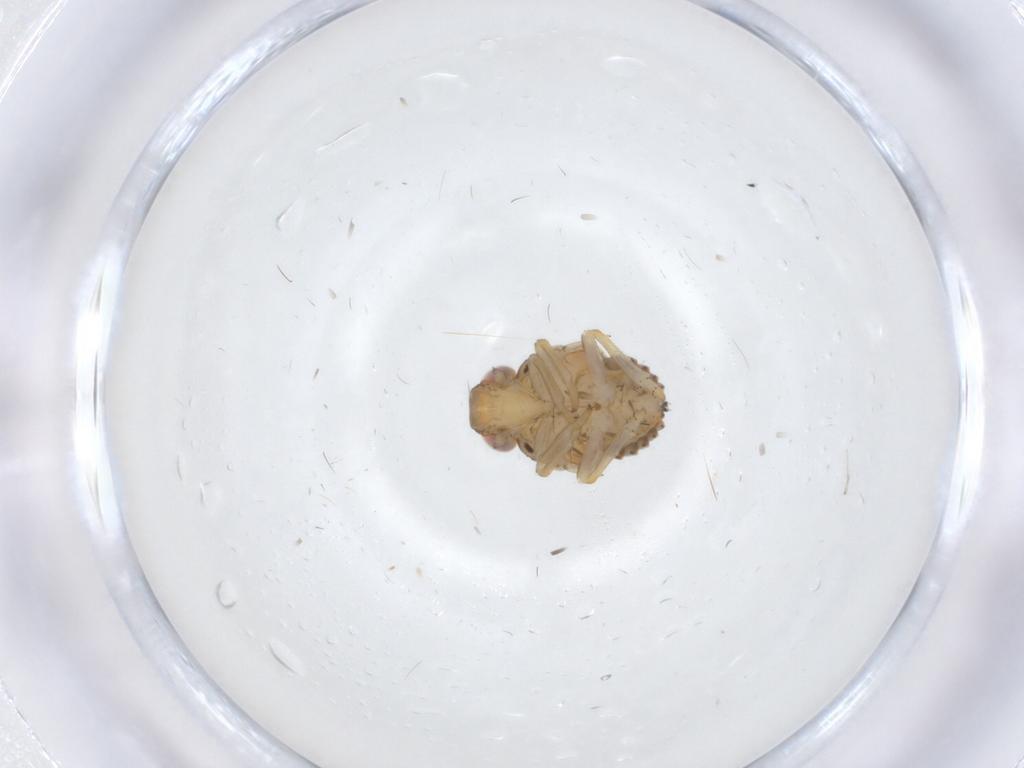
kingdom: Animalia
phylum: Arthropoda
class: Insecta
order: Hemiptera
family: Issidae
